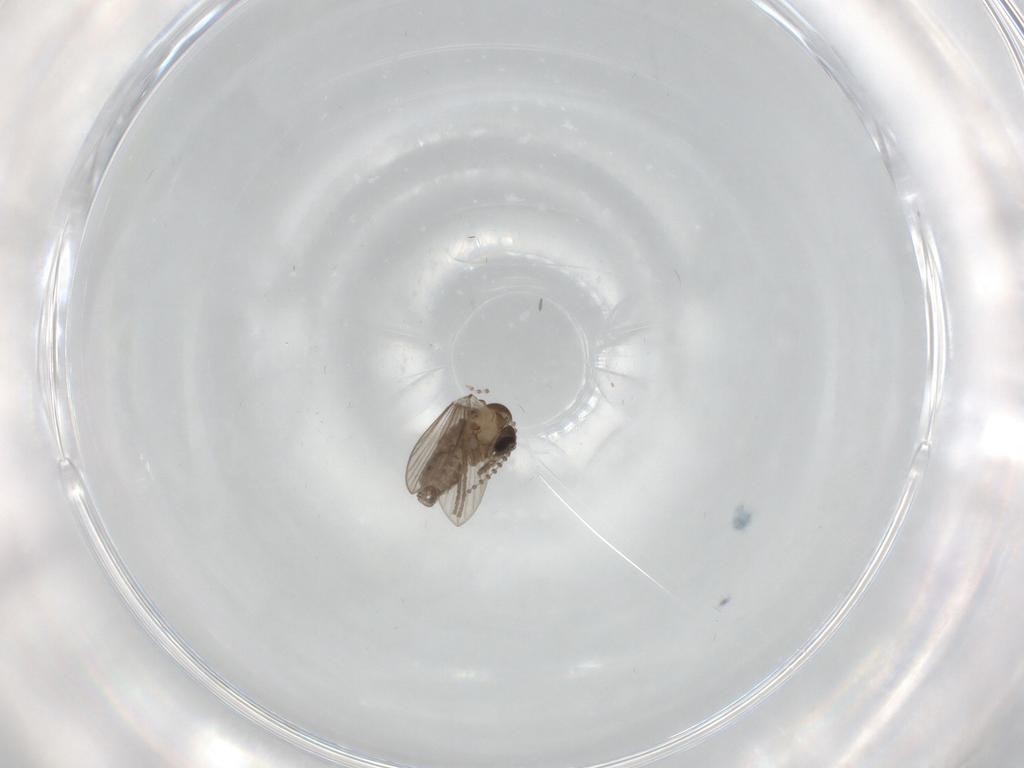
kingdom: Animalia
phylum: Arthropoda
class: Insecta
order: Diptera
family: Psychodidae
